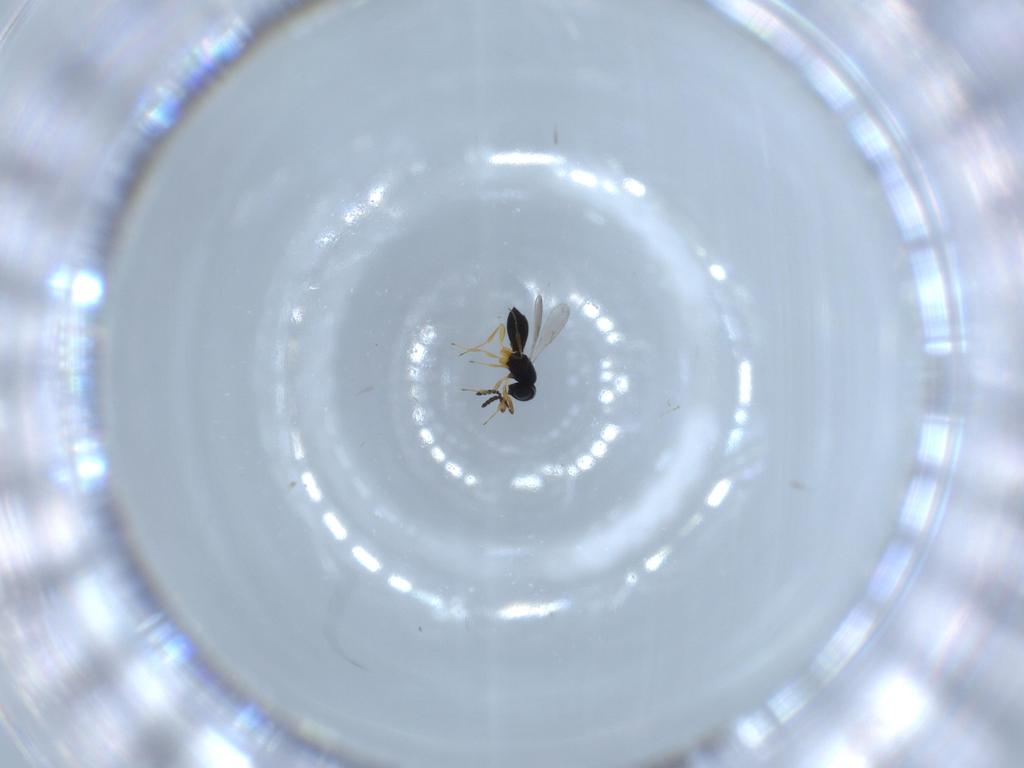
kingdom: Animalia
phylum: Arthropoda
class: Insecta
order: Hymenoptera
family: Scelionidae
